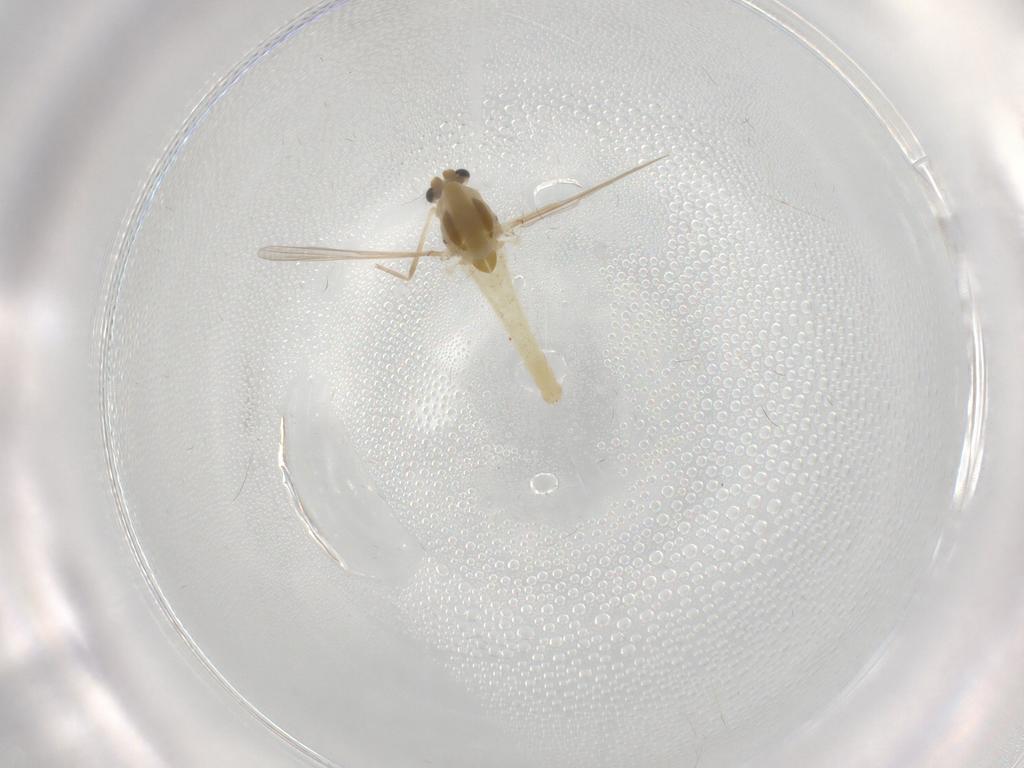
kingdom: Animalia
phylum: Arthropoda
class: Insecta
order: Diptera
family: Chironomidae
